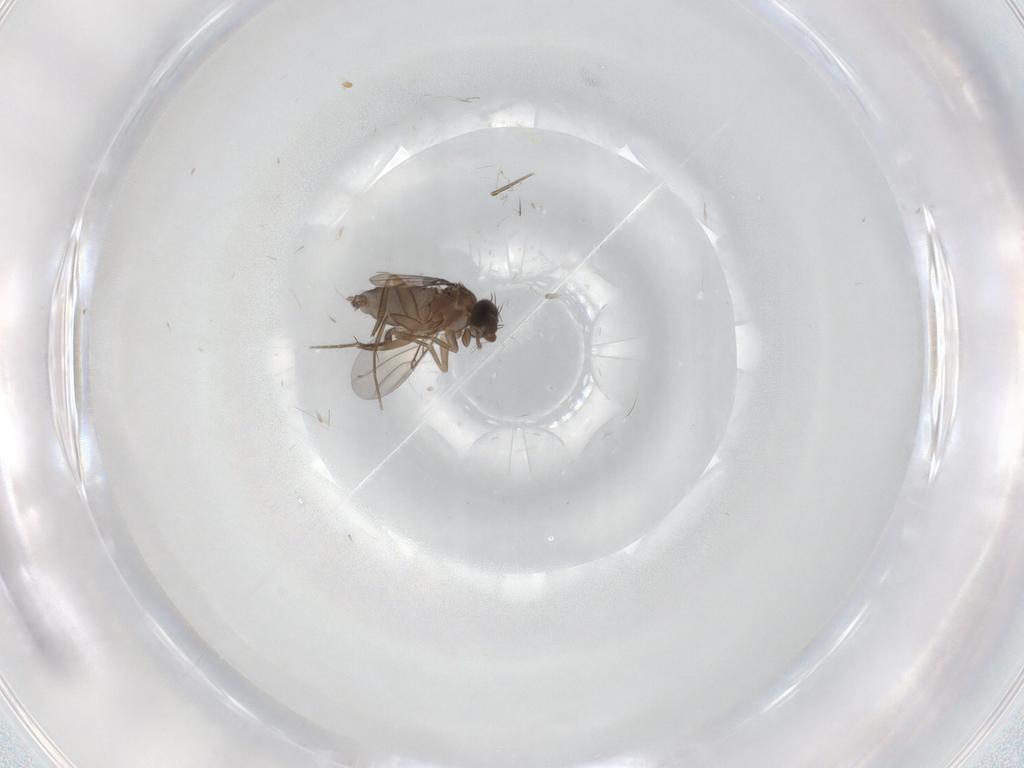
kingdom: Animalia
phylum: Arthropoda
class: Insecta
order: Diptera
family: Phoridae
